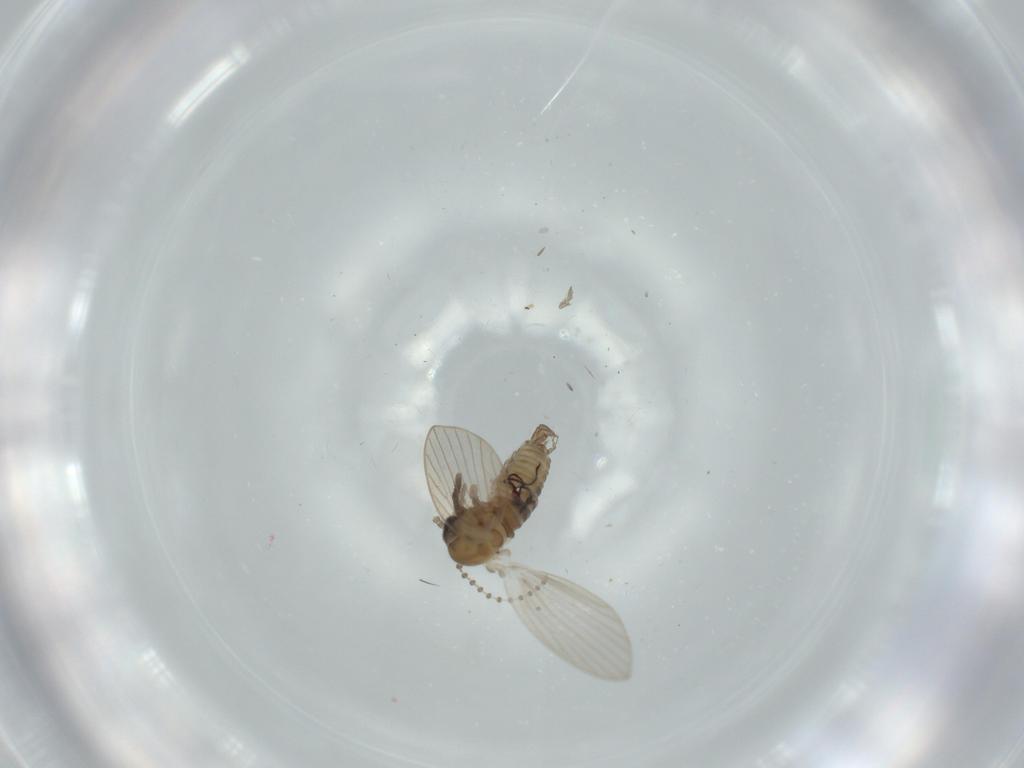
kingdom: Animalia
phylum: Arthropoda
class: Insecta
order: Diptera
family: Psychodidae
